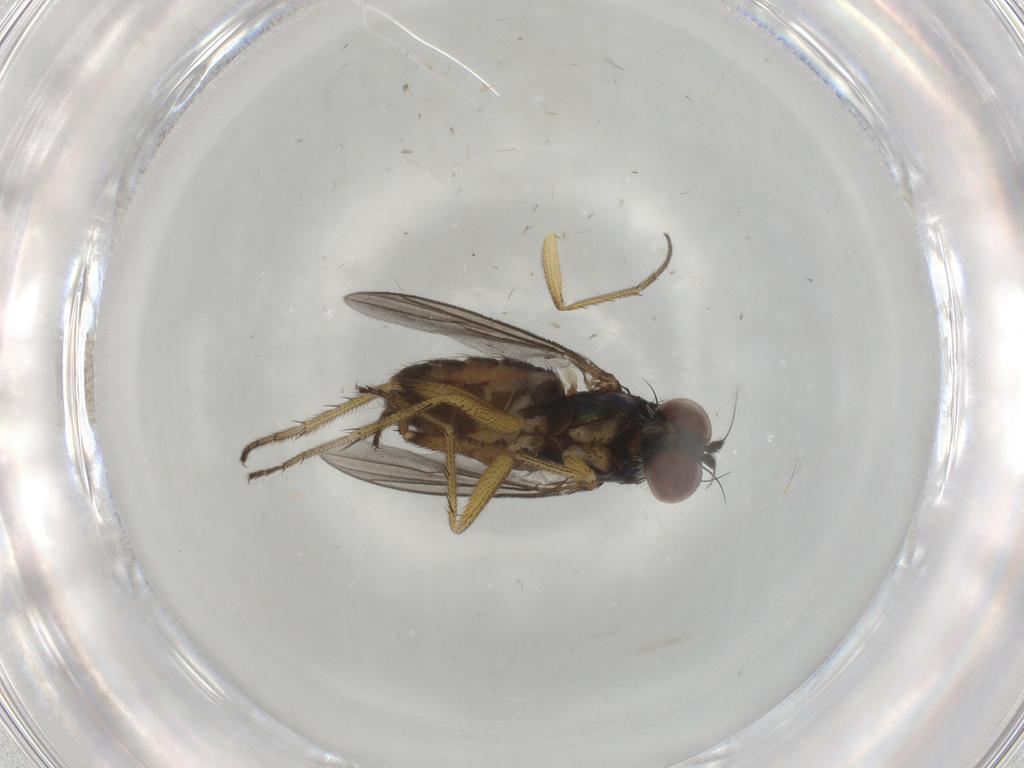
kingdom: Animalia
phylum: Arthropoda
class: Insecta
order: Diptera
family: Dolichopodidae
